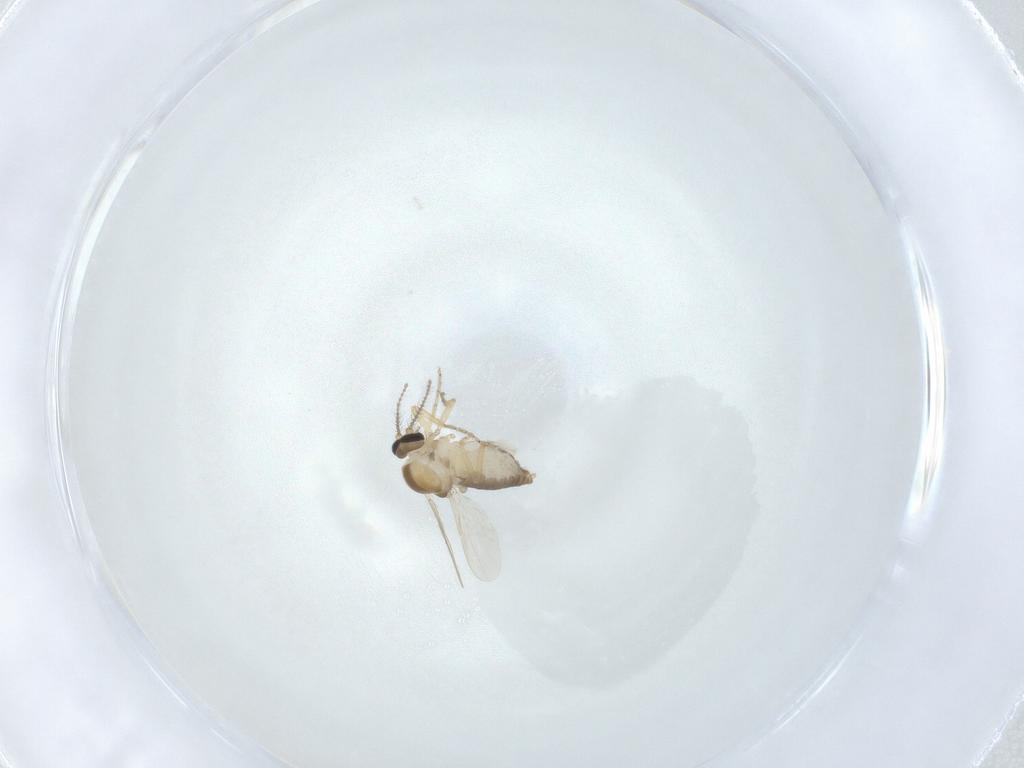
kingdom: Animalia
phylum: Arthropoda
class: Insecta
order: Diptera
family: Ceratopogonidae
